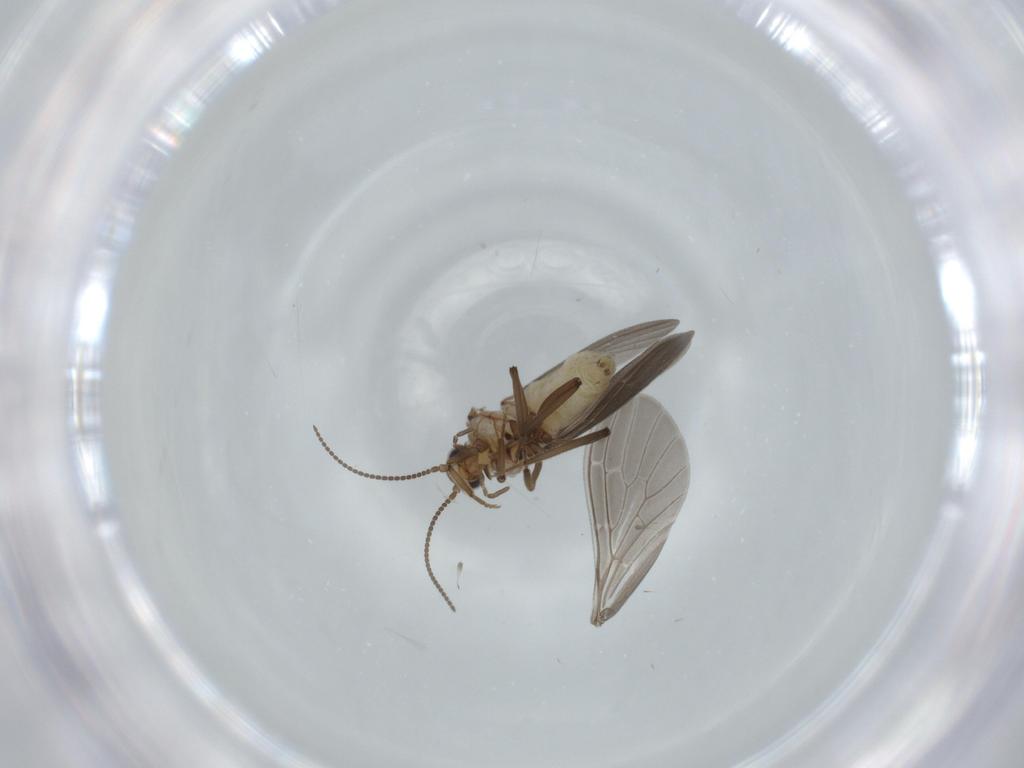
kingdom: Animalia
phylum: Arthropoda
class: Insecta
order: Neuroptera
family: Coniopterygidae
